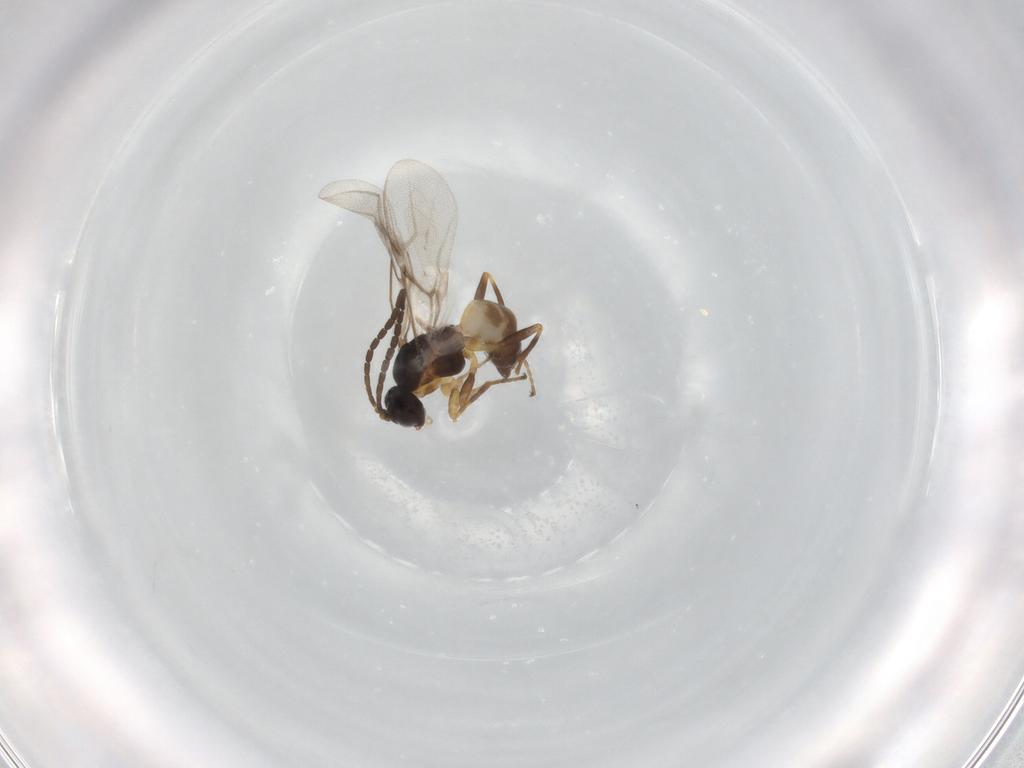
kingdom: Animalia
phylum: Arthropoda
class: Insecta
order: Hymenoptera
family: Braconidae
